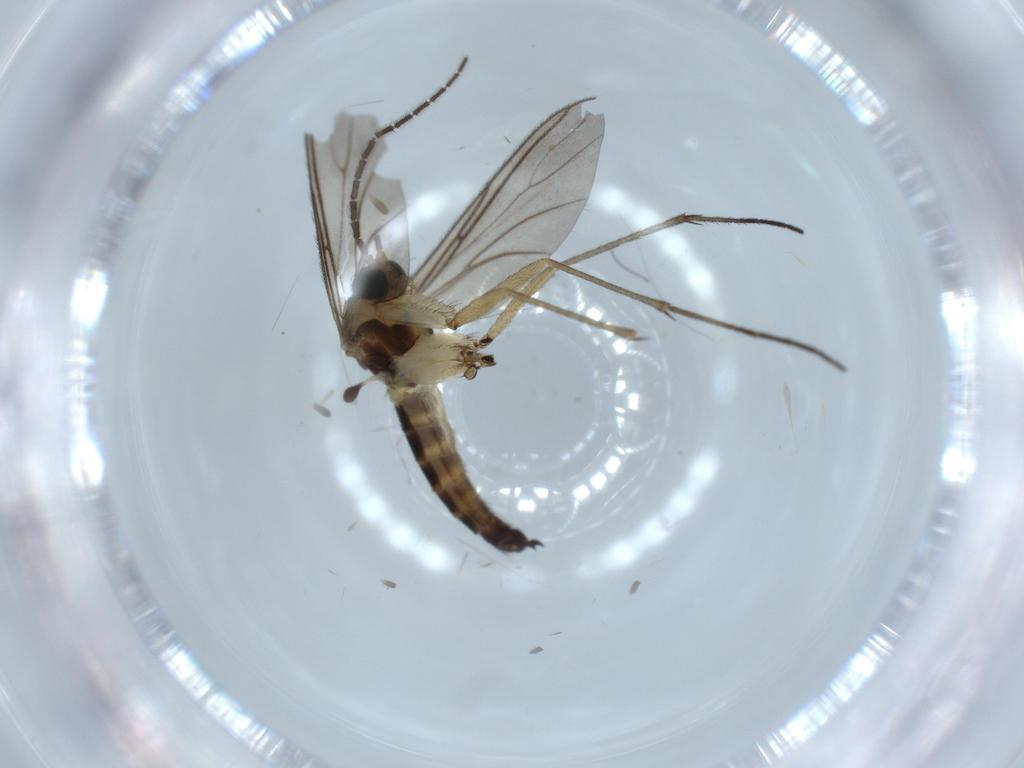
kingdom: Animalia
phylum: Arthropoda
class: Insecta
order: Diptera
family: Sciaridae
